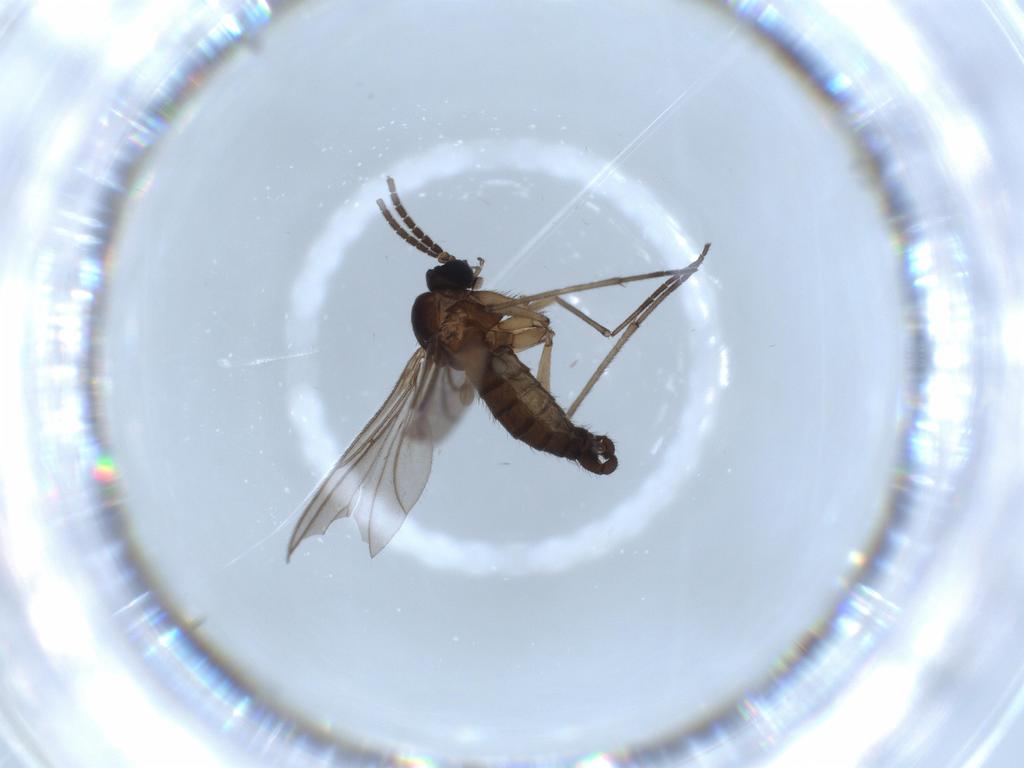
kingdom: Animalia
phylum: Arthropoda
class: Insecta
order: Diptera
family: Sciaridae
